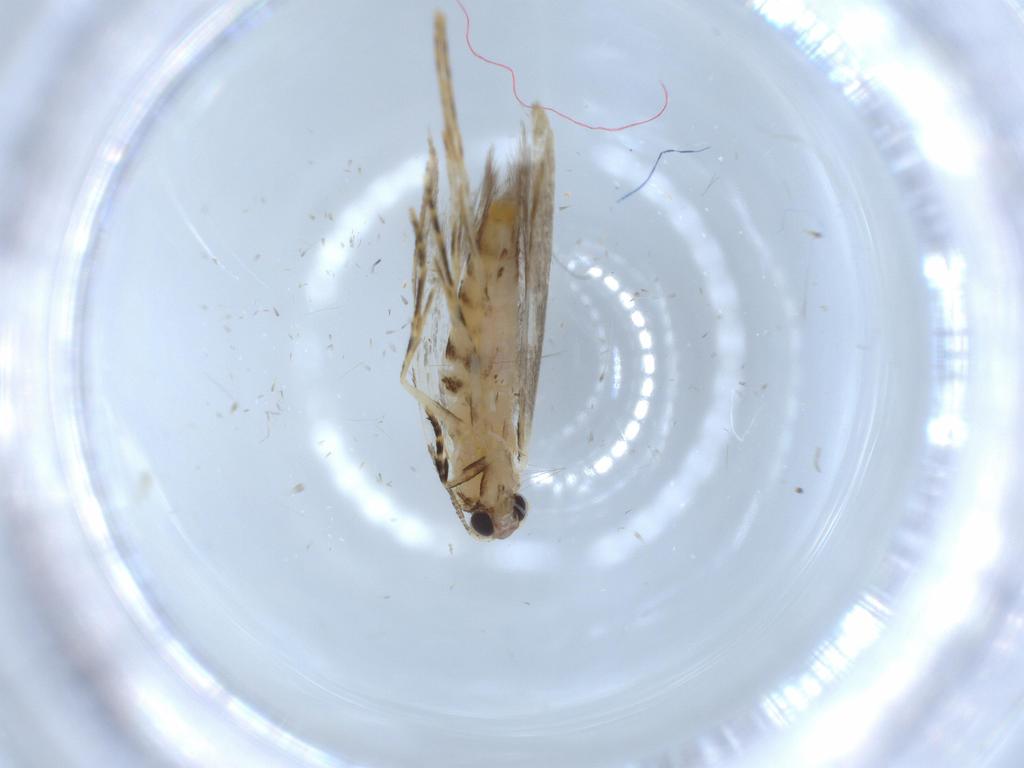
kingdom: Animalia
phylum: Arthropoda
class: Insecta
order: Lepidoptera
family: Tineidae
